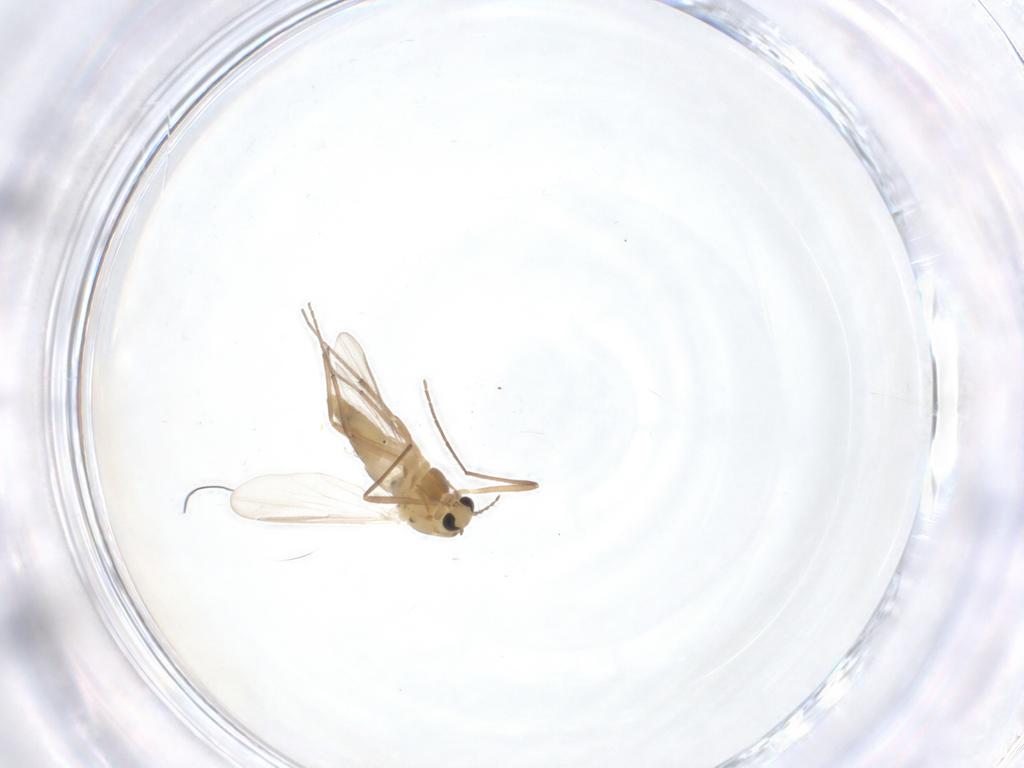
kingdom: Animalia
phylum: Arthropoda
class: Insecta
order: Diptera
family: Chironomidae
